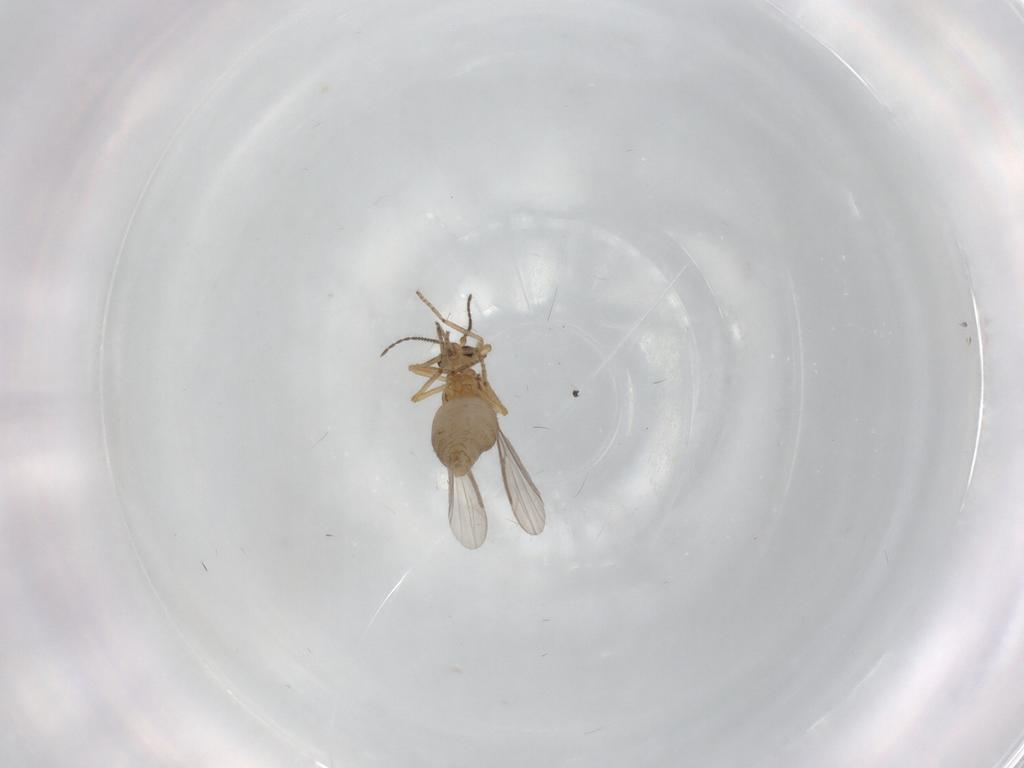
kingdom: Animalia
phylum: Arthropoda
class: Insecta
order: Diptera
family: Ceratopogonidae
